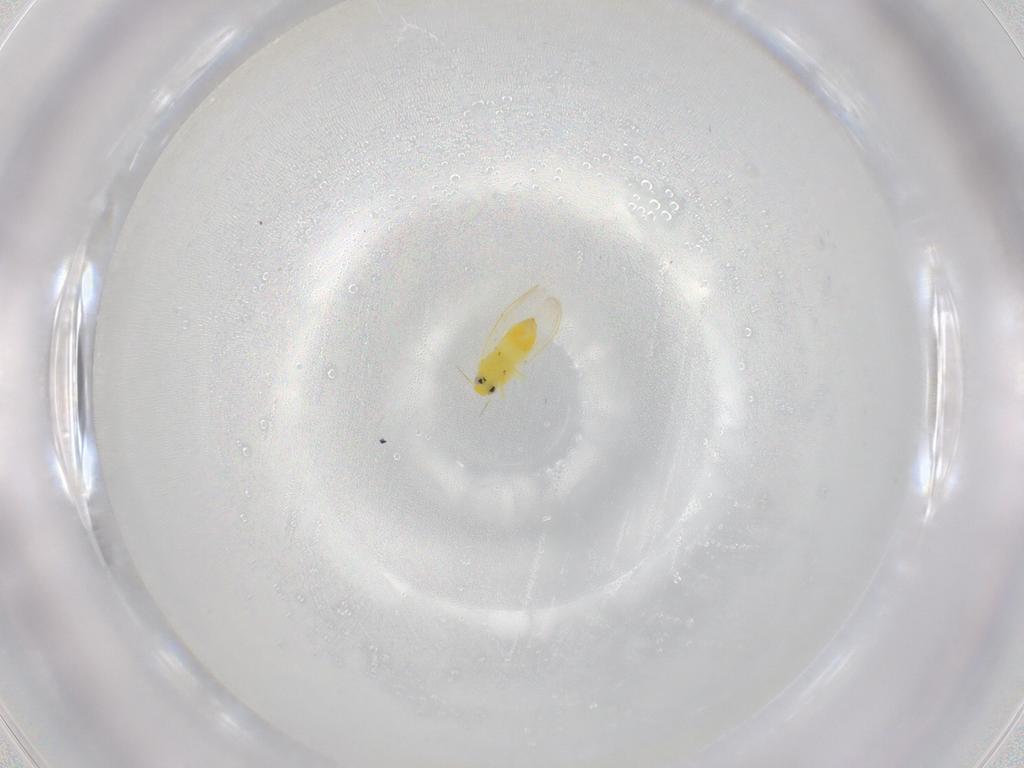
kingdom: Animalia
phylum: Arthropoda
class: Insecta
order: Hemiptera
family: Aleyrodidae
